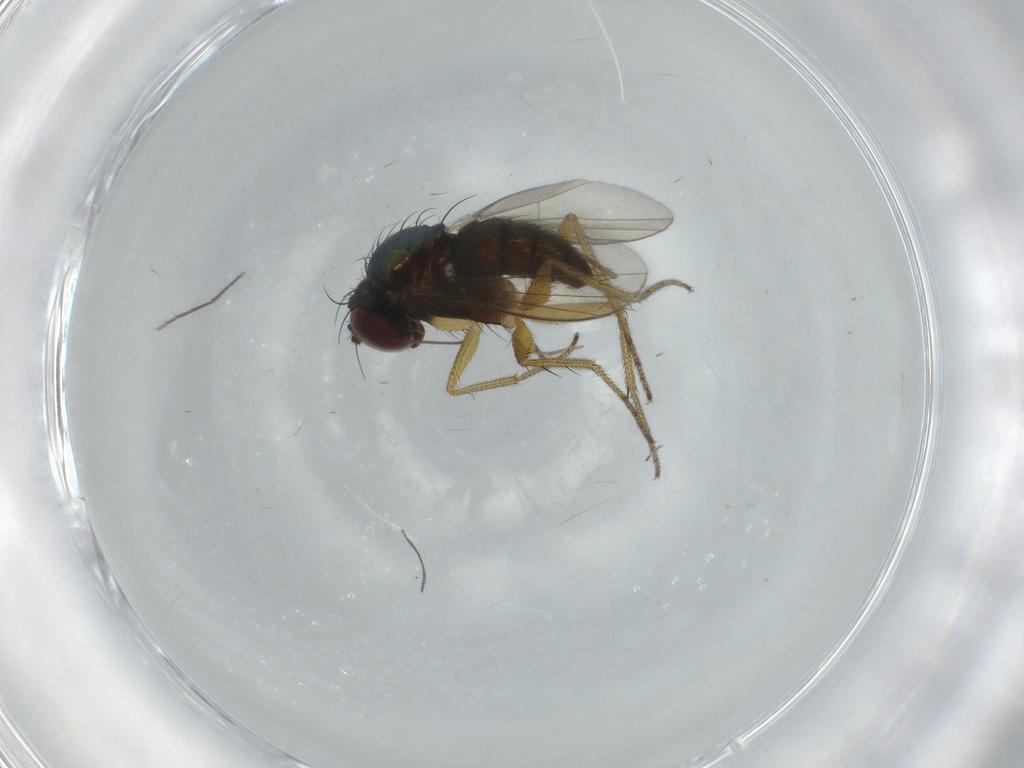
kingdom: Animalia
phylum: Arthropoda
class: Insecta
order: Diptera
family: Dolichopodidae
